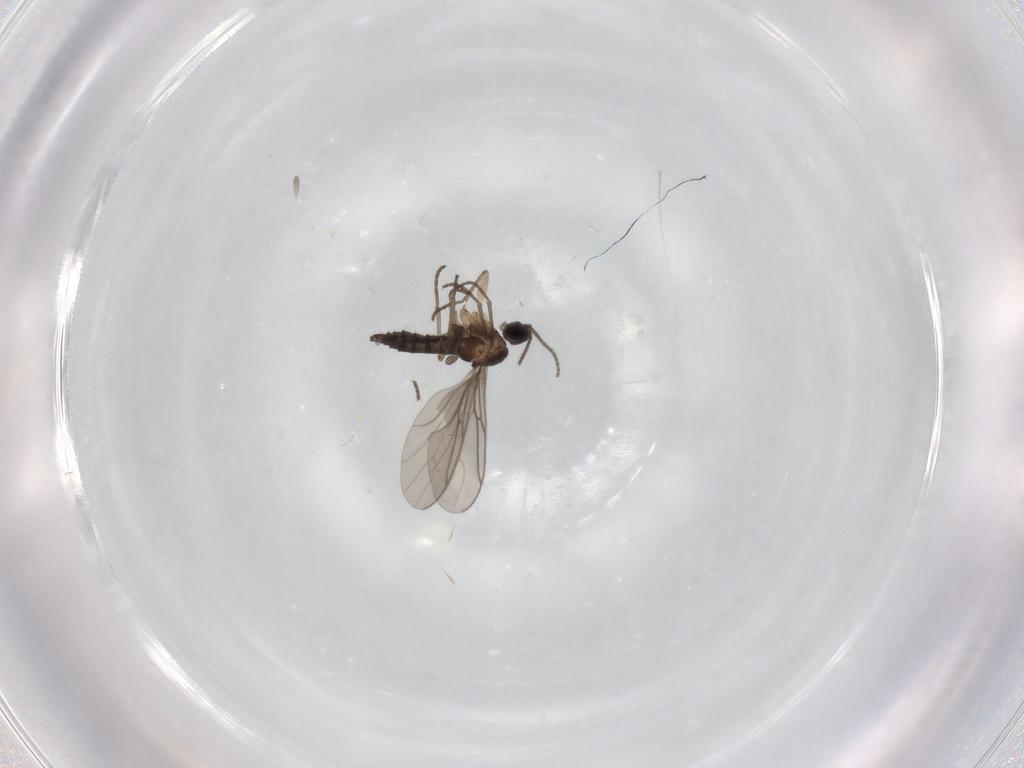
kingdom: Animalia
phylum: Arthropoda
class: Insecta
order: Diptera
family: Sciaridae
